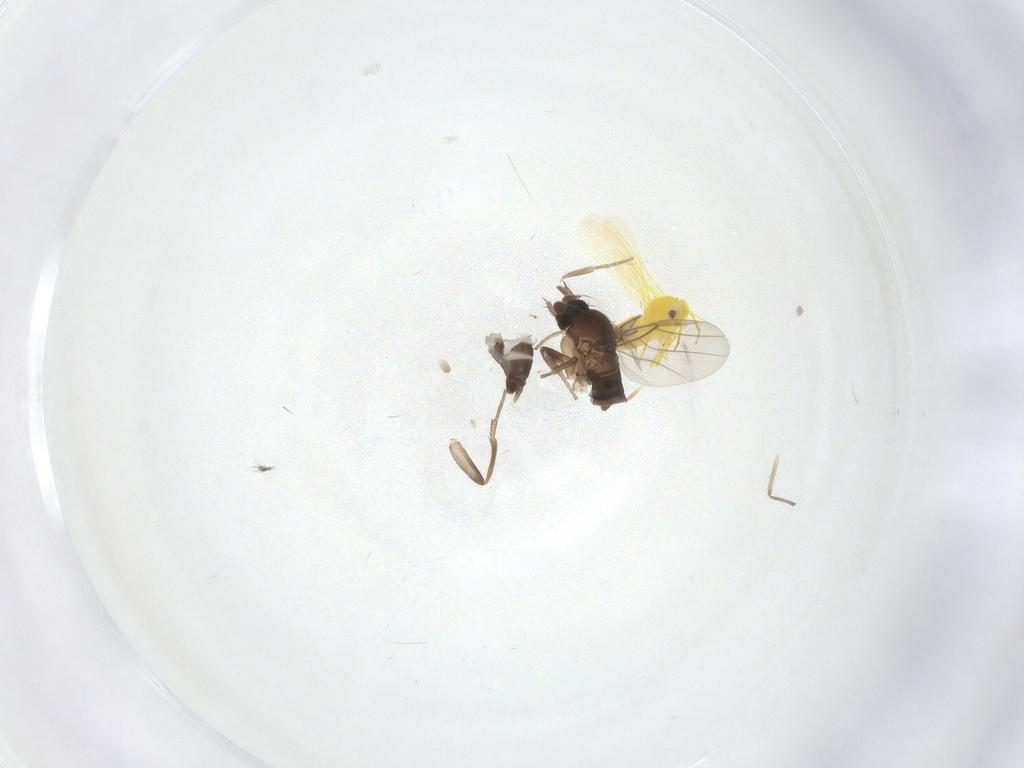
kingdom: Animalia
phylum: Arthropoda
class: Insecta
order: Diptera
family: Phoridae
